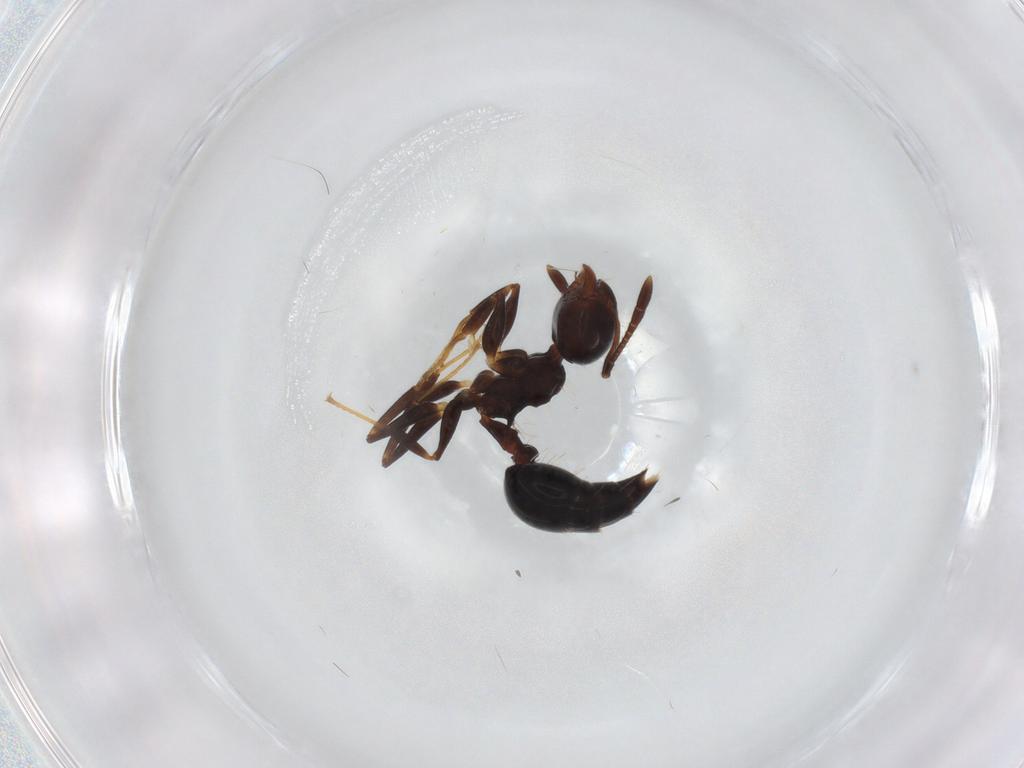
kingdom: Animalia
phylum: Arthropoda
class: Insecta
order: Hymenoptera
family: Formicidae
